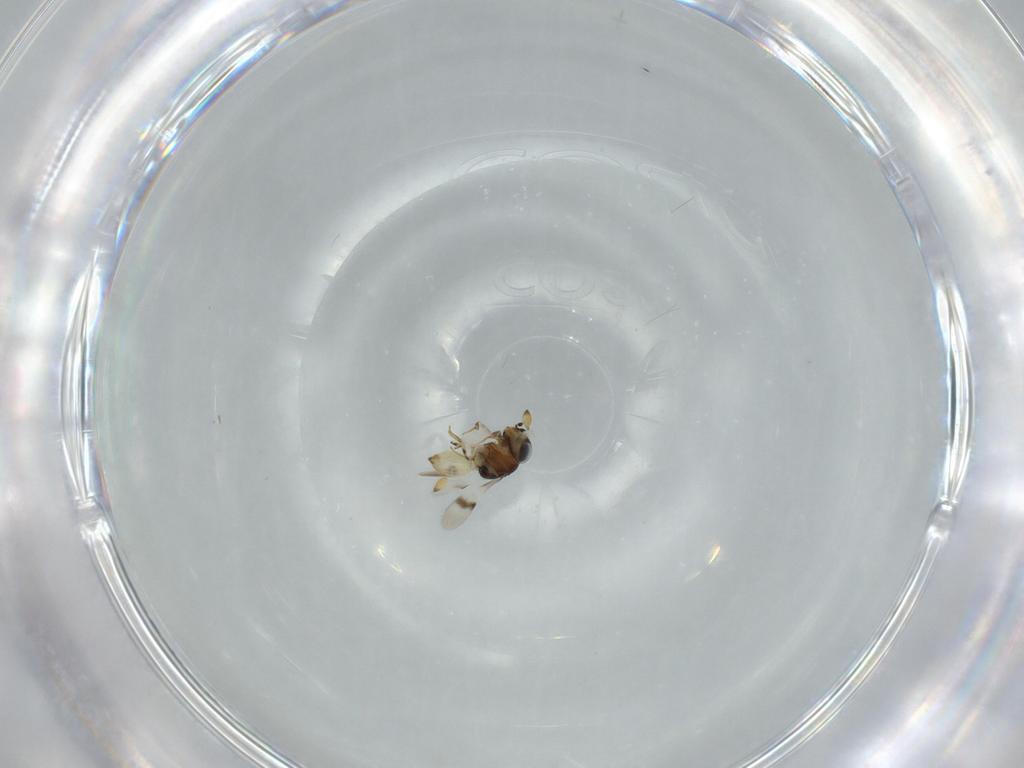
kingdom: Animalia
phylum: Arthropoda
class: Insecta
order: Hymenoptera
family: Scelionidae
